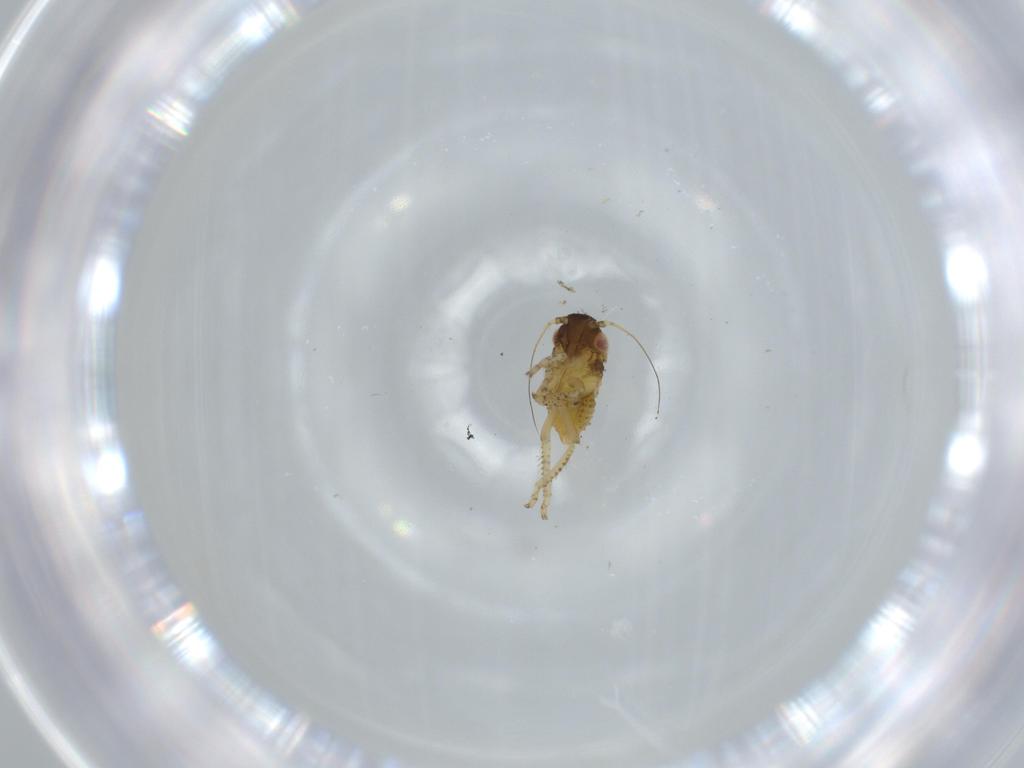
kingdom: Animalia
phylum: Arthropoda
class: Insecta
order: Hemiptera
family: Cicadellidae
